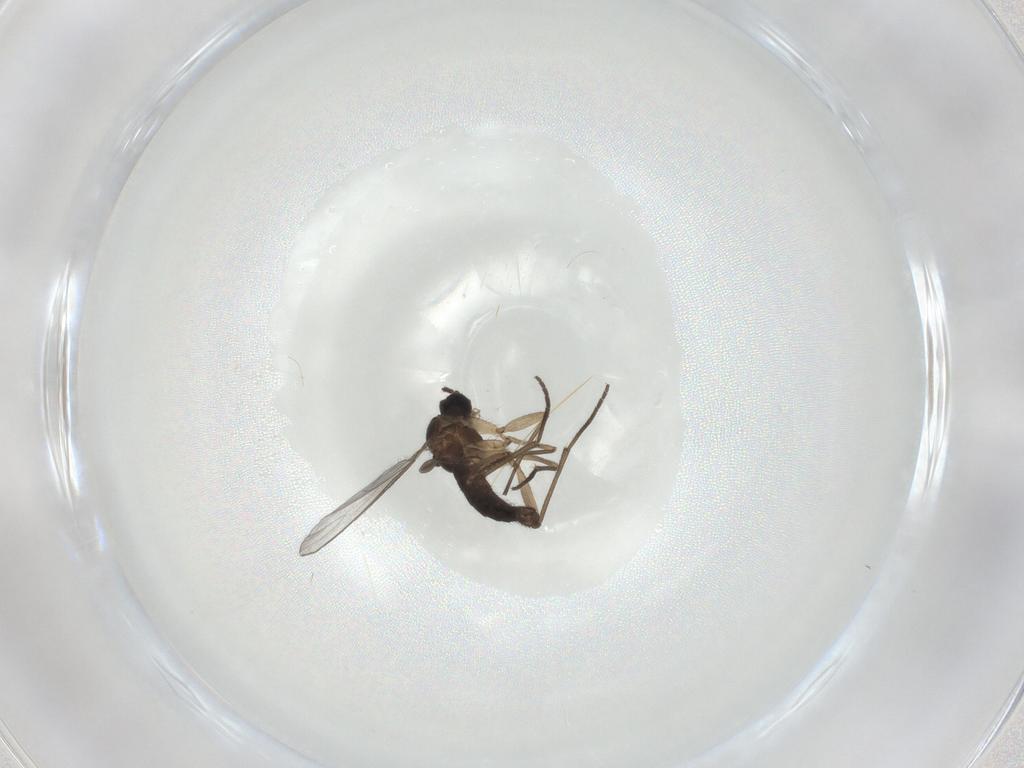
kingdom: Animalia
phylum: Arthropoda
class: Insecta
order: Diptera
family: Sciaridae
